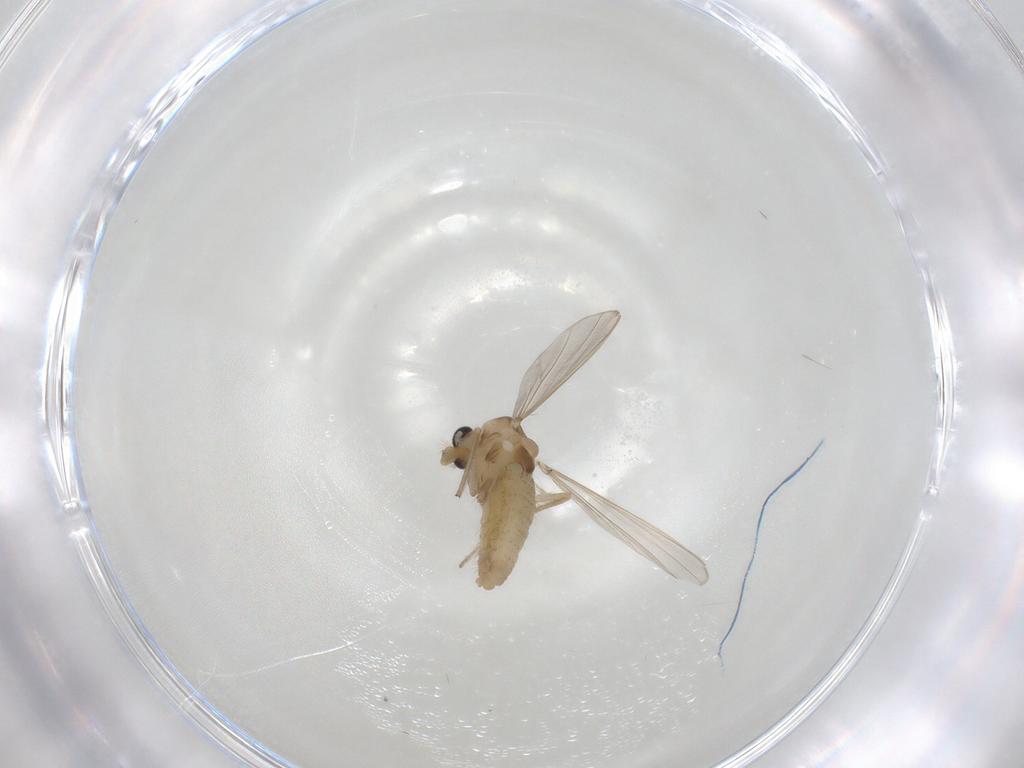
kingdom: Animalia
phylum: Arthropoda
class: Insecta
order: Diptera
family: Chironomidae
